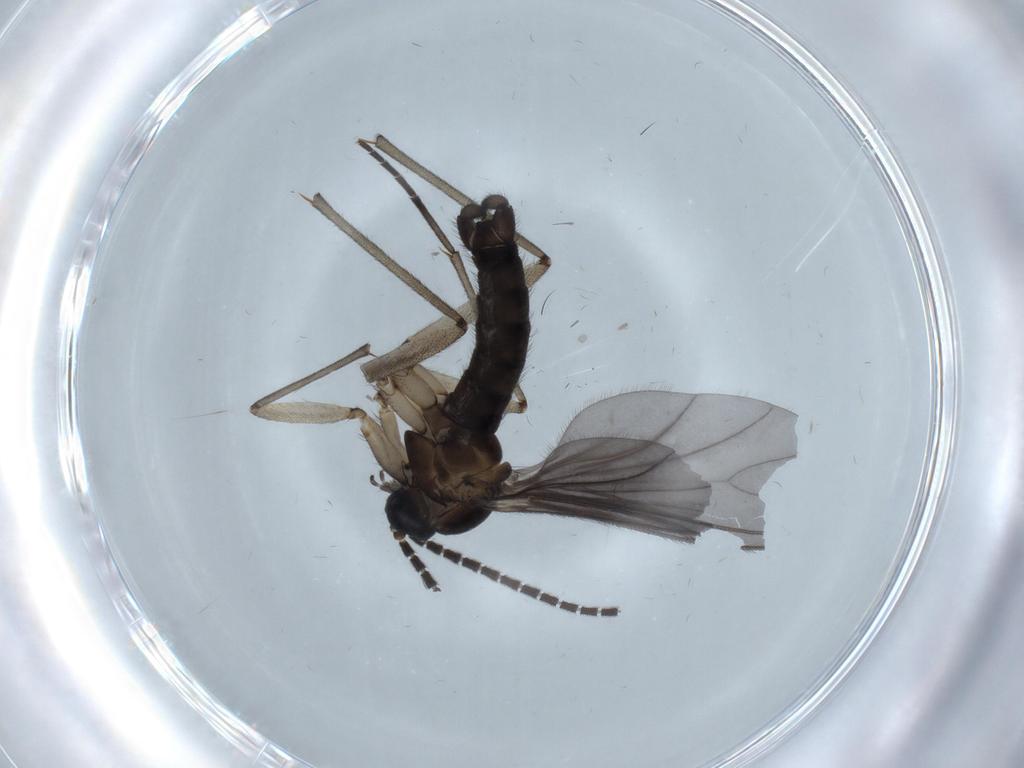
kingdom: Animalia
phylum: Arthropoda
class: Insecta
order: Diptera
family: Sciaridae
